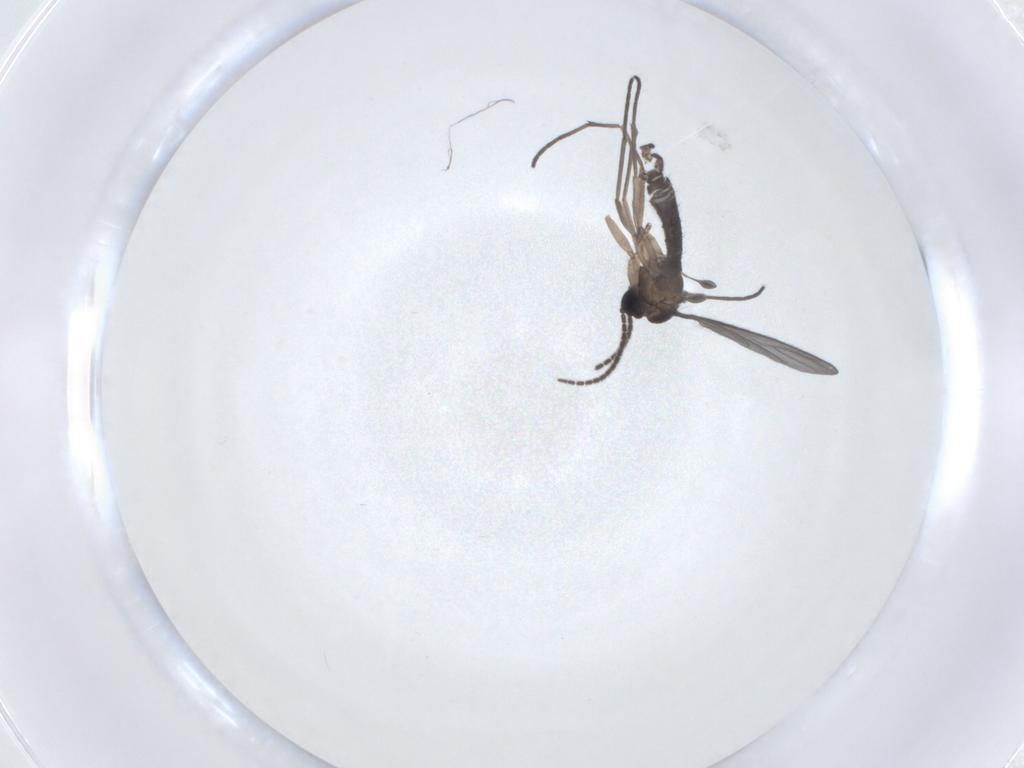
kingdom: Animalia
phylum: Arthropoda
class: Insecta
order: Diptera
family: Sciaridae
